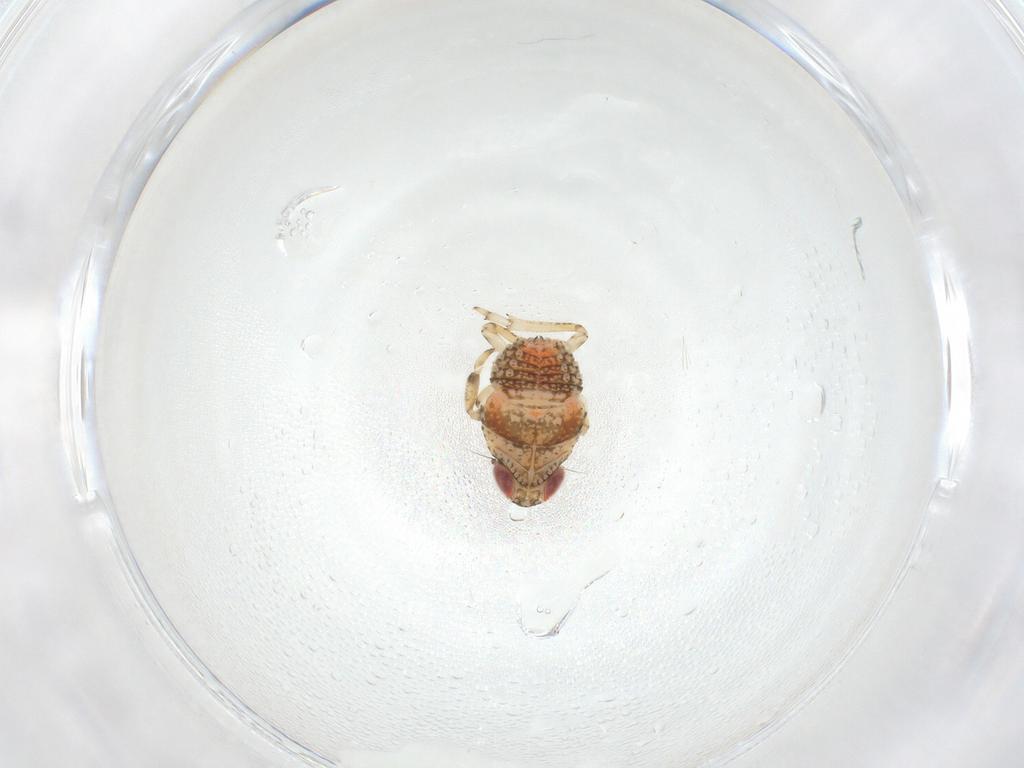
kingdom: Animalia
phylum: Arthropoda
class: Insecta
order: Hemiptera
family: Issidae
